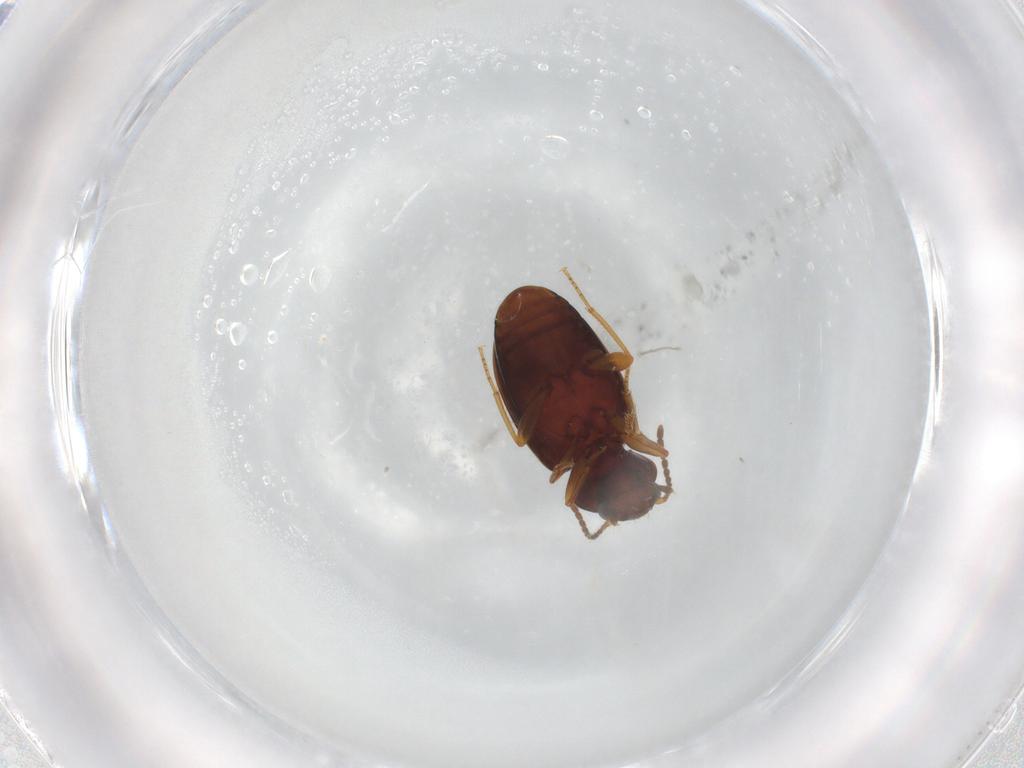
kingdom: Animalia
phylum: Arthropoda
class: Insecta
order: Coleoptera
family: Carabidae
